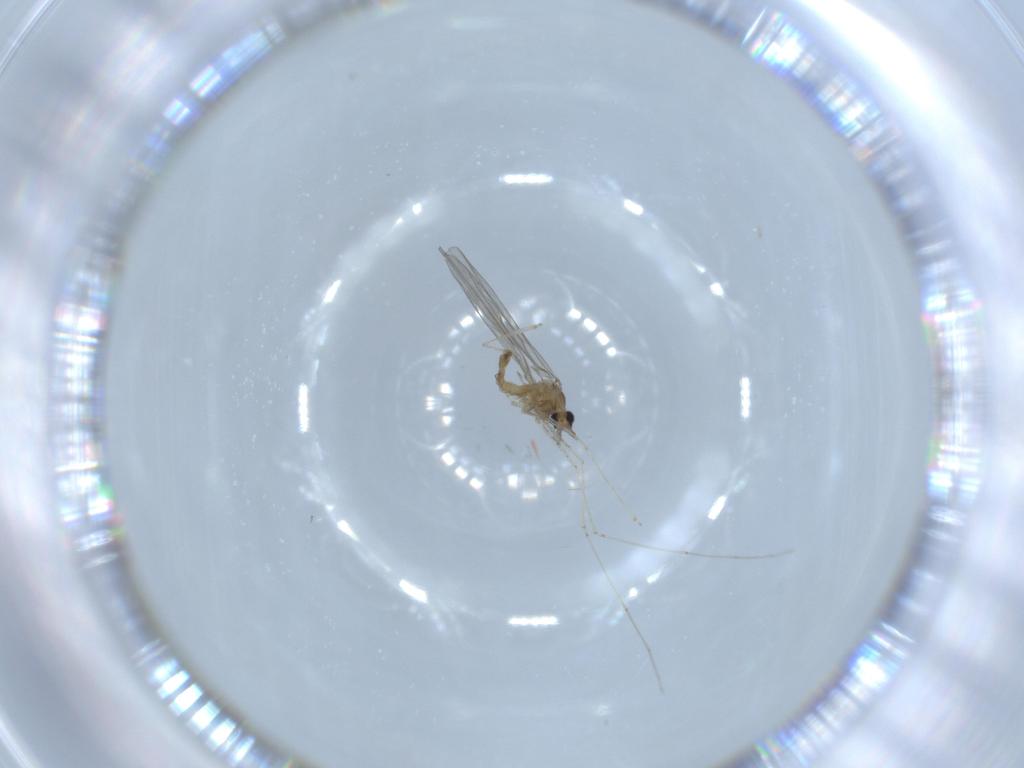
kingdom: Animalia
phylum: Arthropoda
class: Insecta
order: Diptera
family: Cecidomyiidae
